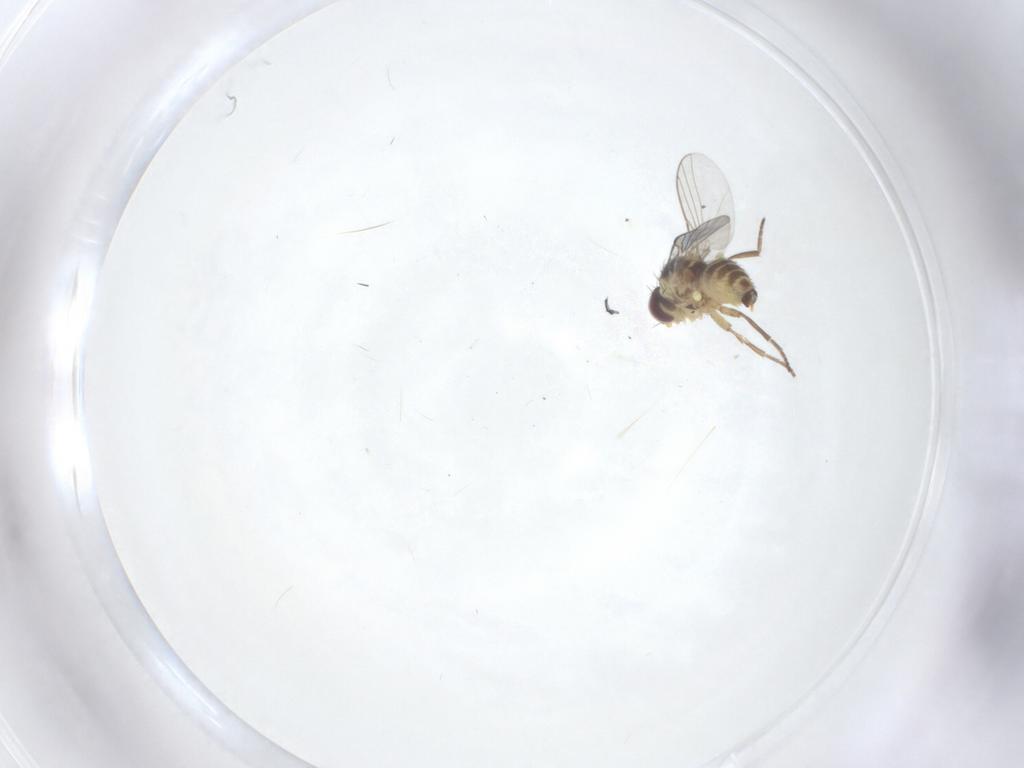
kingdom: Animalia
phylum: Arthropoda
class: Insecta
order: Diptera
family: Agromyzidae
